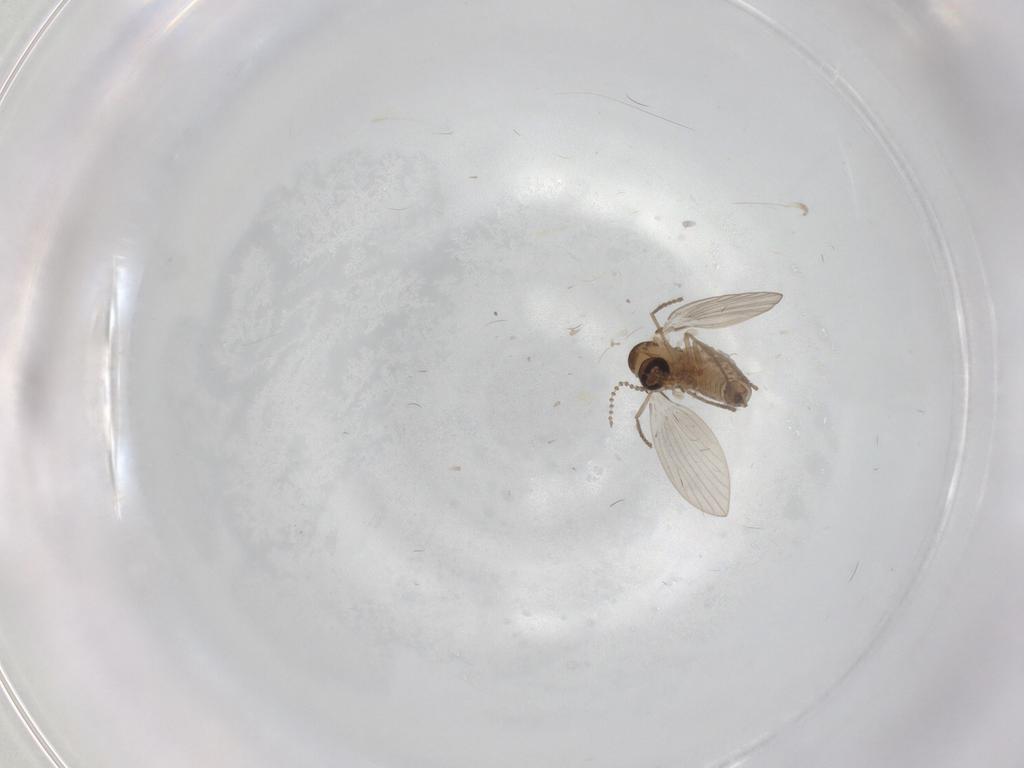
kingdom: Animalia
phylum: Arthropoda
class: Insecta
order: Diptera
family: Psychodidae
